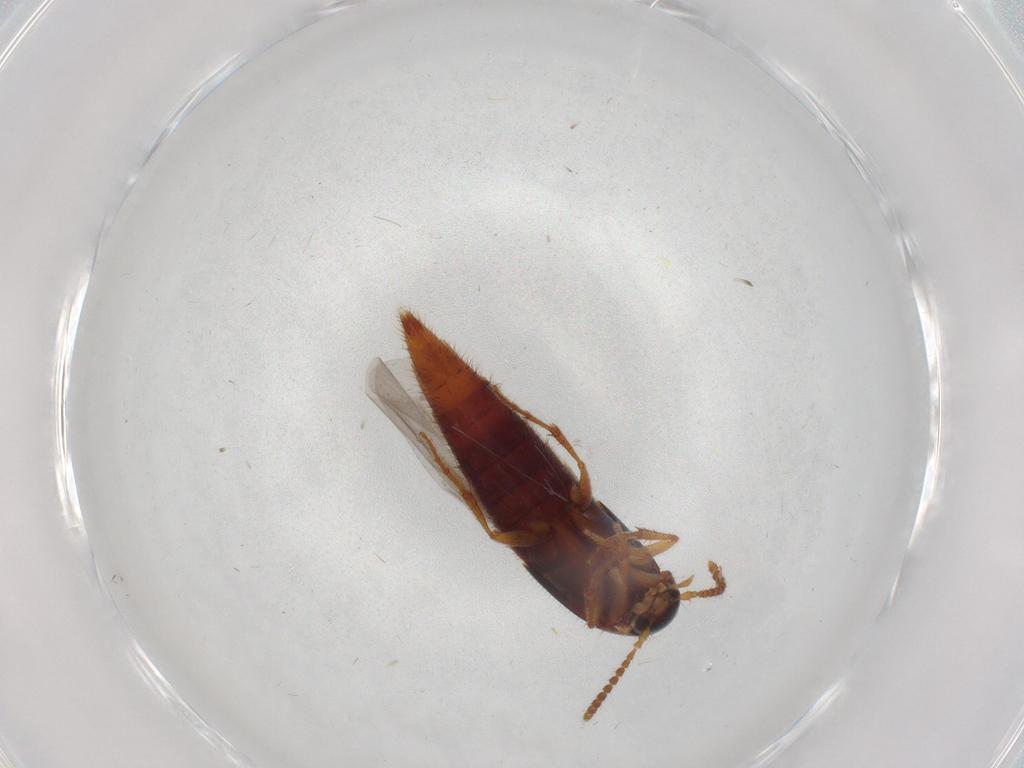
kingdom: Animalia
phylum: Arthropoda
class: Insecta
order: Coleoptera
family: Staphylinidae
